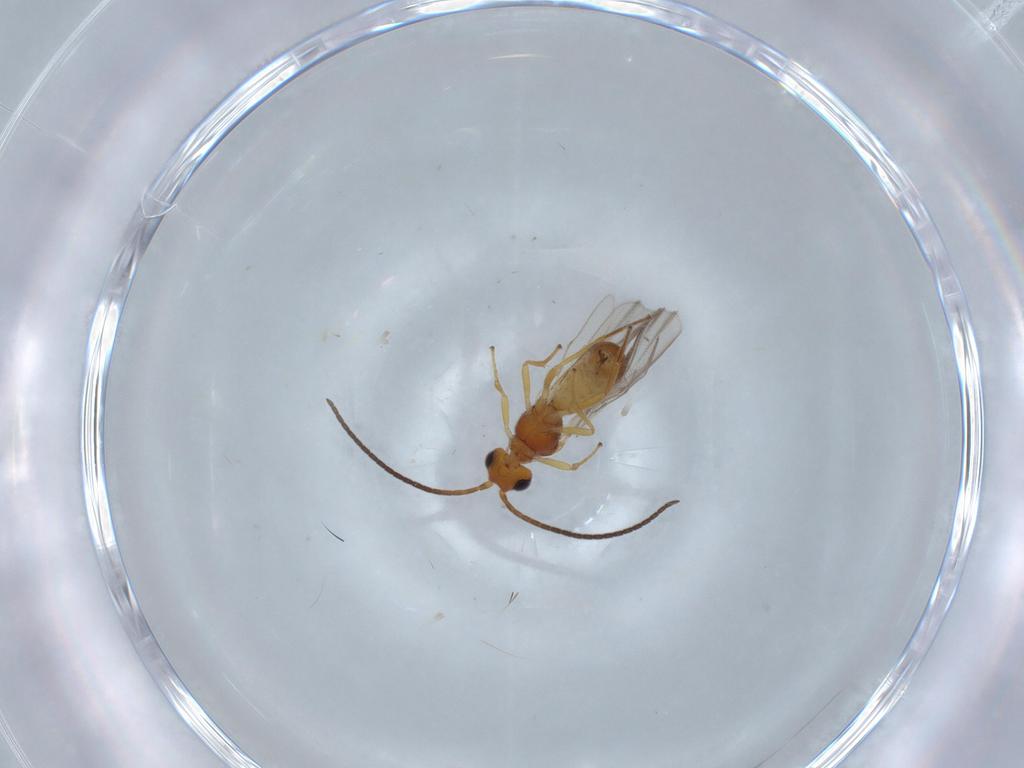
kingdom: Animalia
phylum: Arthropoda
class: Insecta
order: Hymenoptera
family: Braconidae
